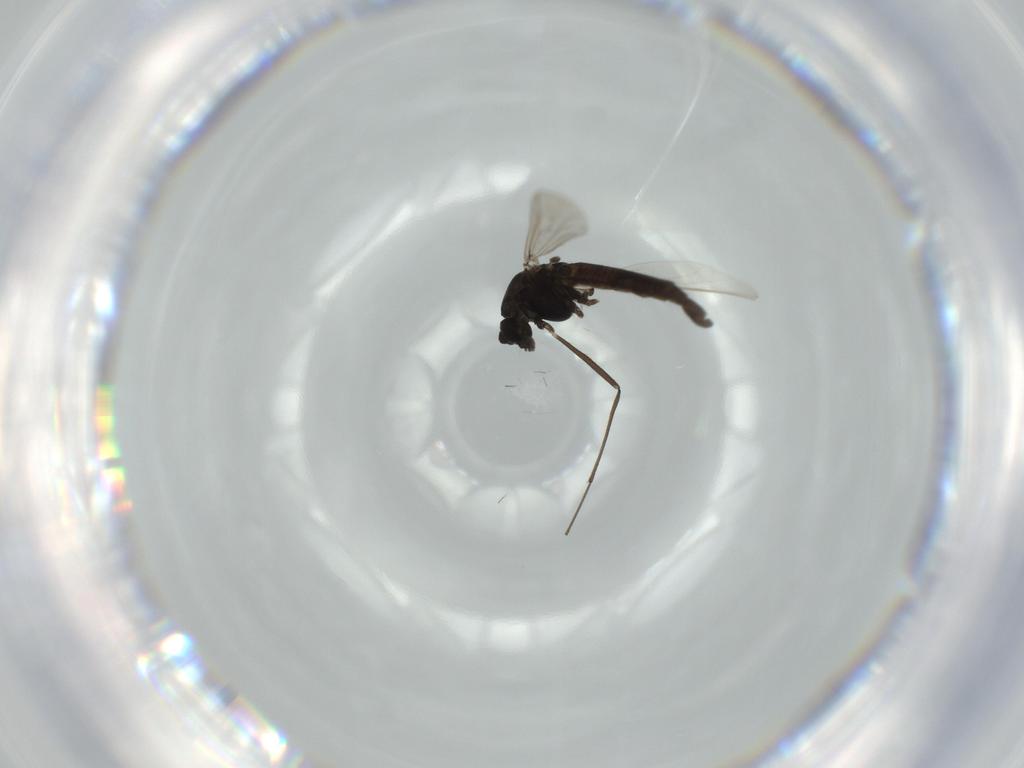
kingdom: Animalia
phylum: Arthropoda
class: Insecta
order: Diptera
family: Chironomidae
